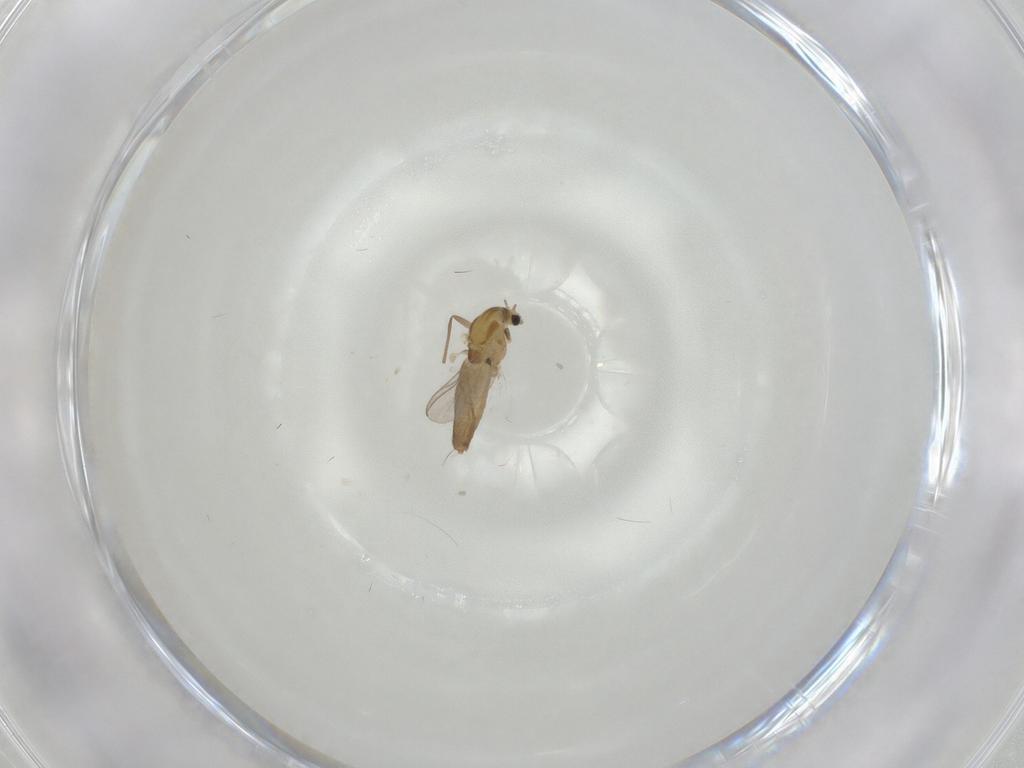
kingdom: Animalia
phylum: Arthropoda
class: Insecta
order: Diptera
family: Chironomidae
